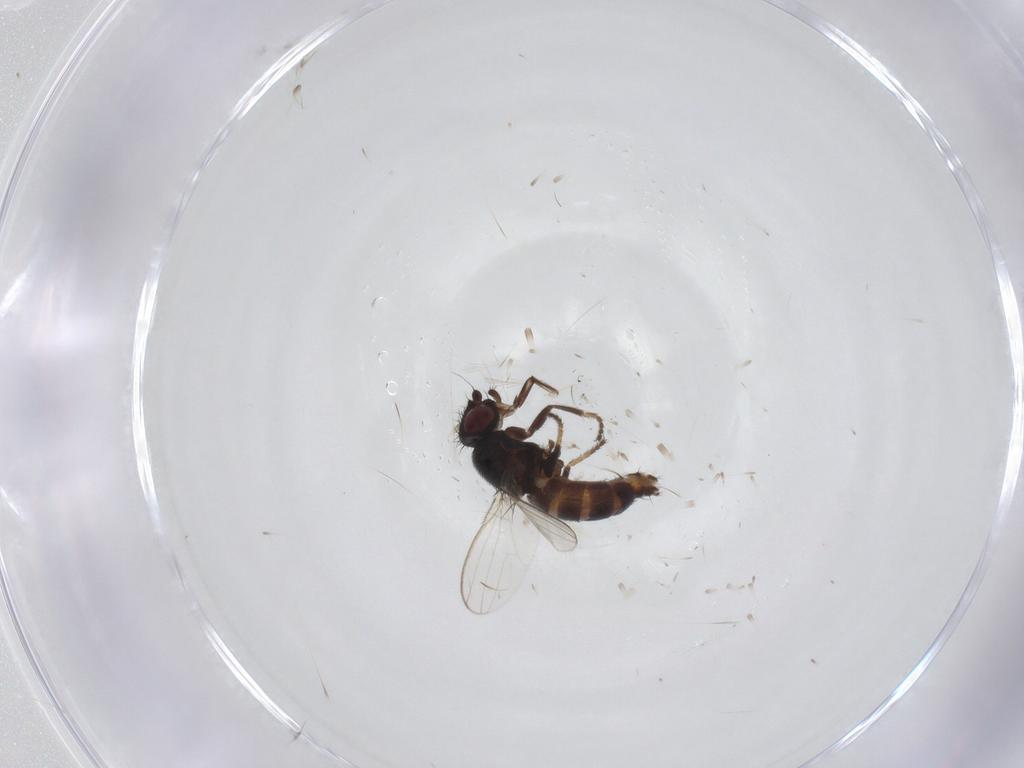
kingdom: Animalia
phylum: Arthropoda
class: Insecta
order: Diptera
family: Milichiidae
